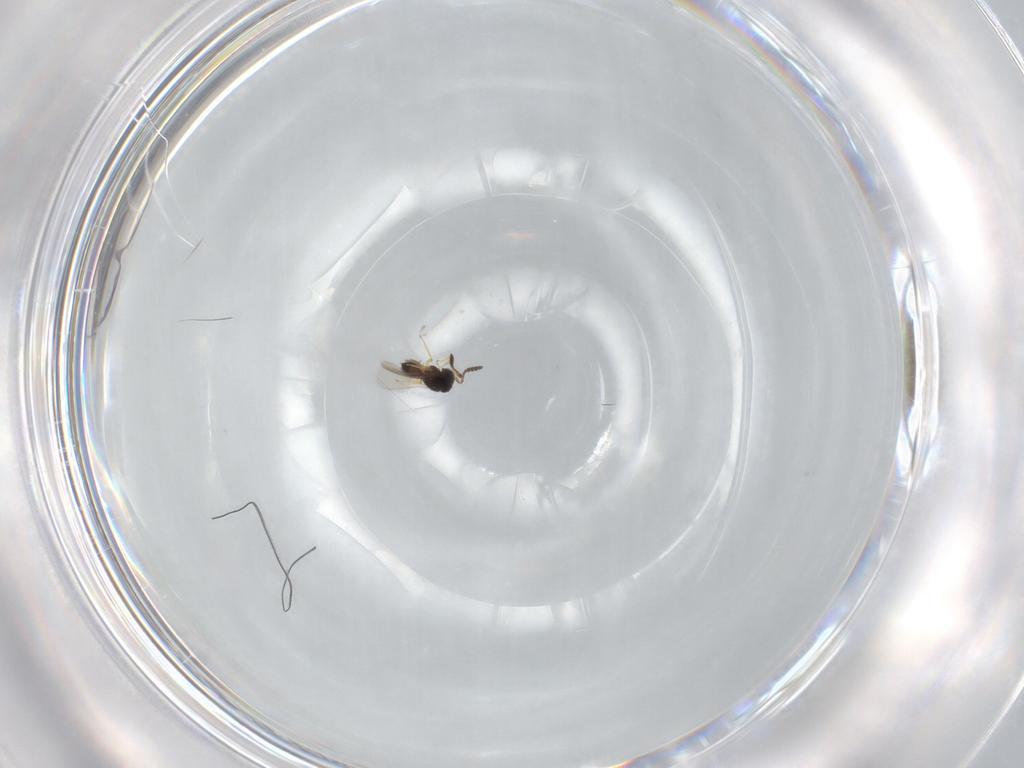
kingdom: Animalia
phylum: Arthropoda
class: Insecta
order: Hymenoptera
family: Scelionidae
